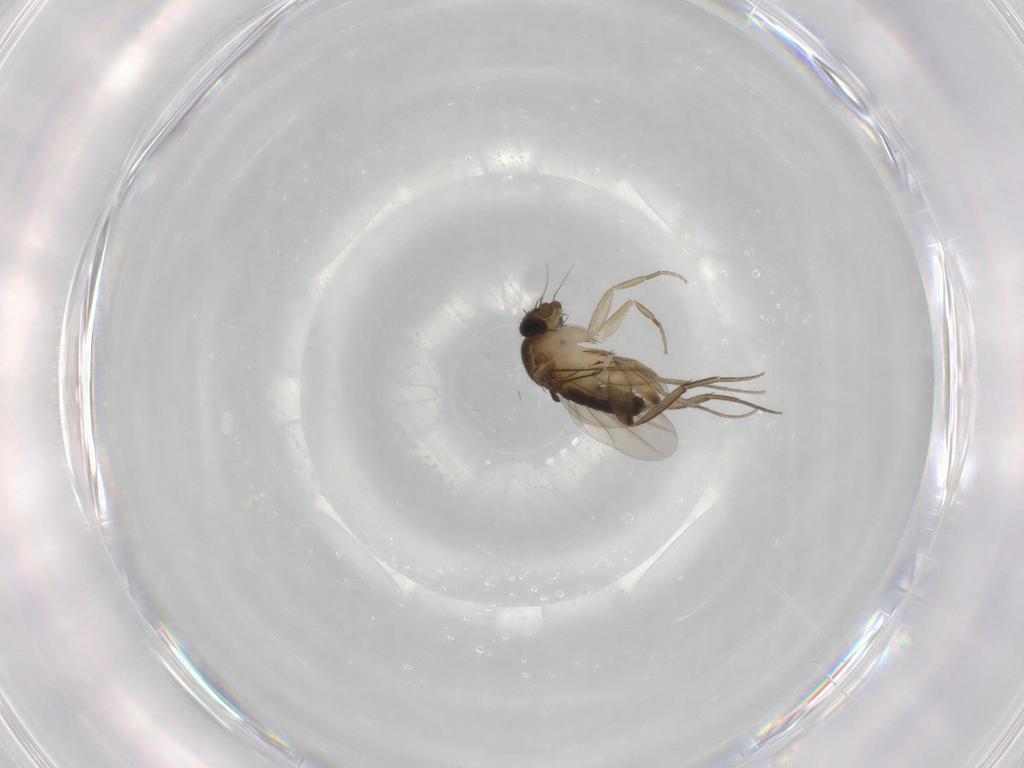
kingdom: Animalia
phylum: Arthropoda
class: Insecta
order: Diptera
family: Phoridae
